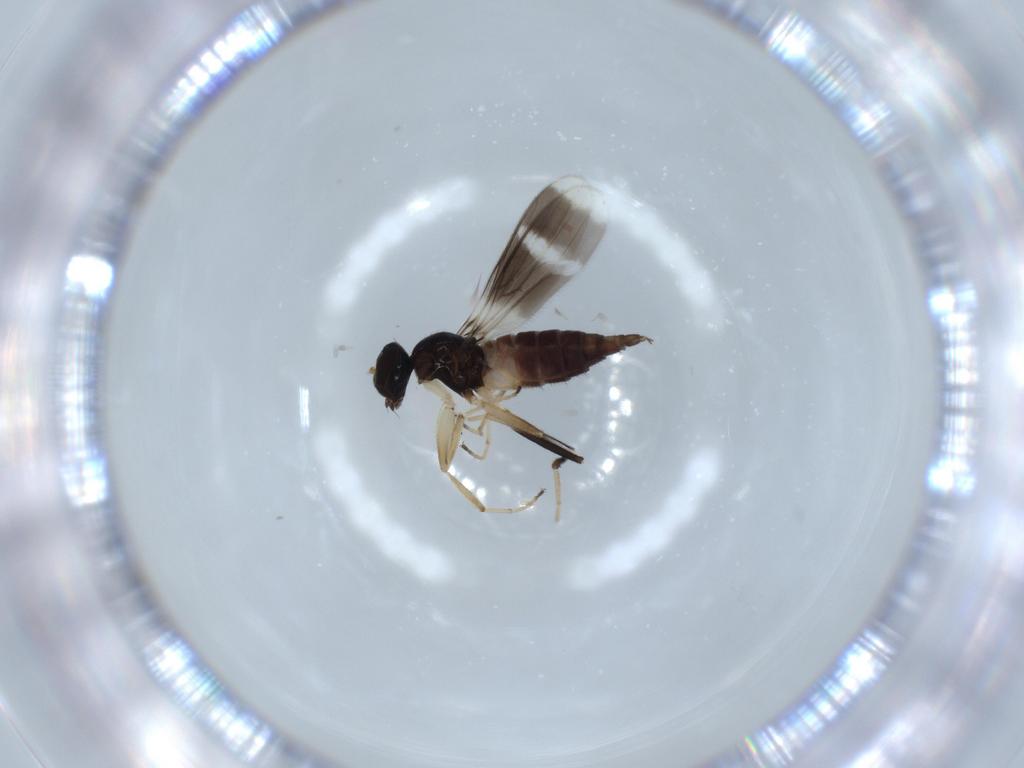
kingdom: Animalia
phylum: Arthropoda
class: Insecta
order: Diptera
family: Hybotidae
